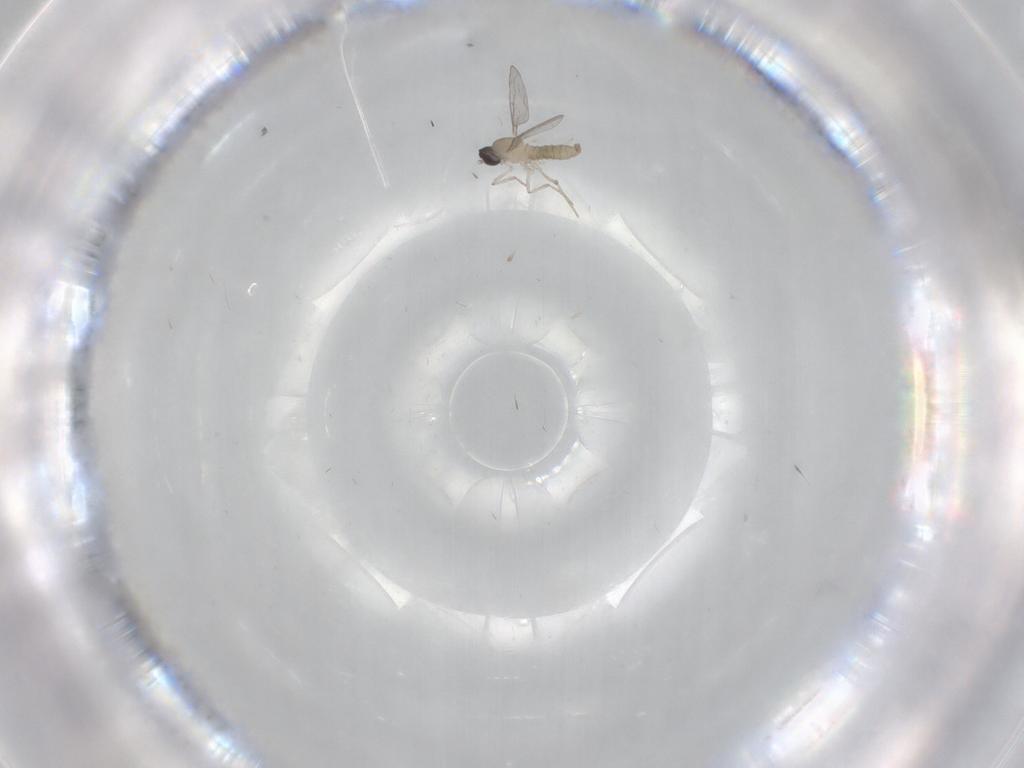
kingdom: Animalia
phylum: Arthropoda
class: Insecta
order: Diptera
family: Cecidomyiidae
